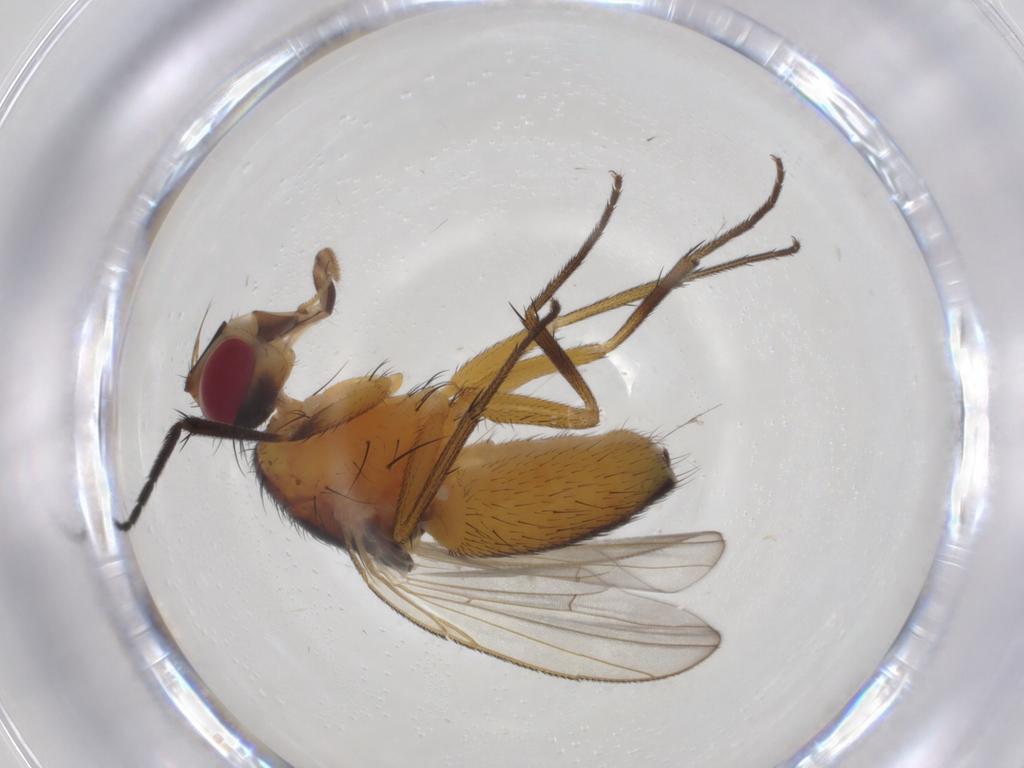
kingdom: Animalia
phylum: Arthropoda
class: Insecta
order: Diptera
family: Muscidae
